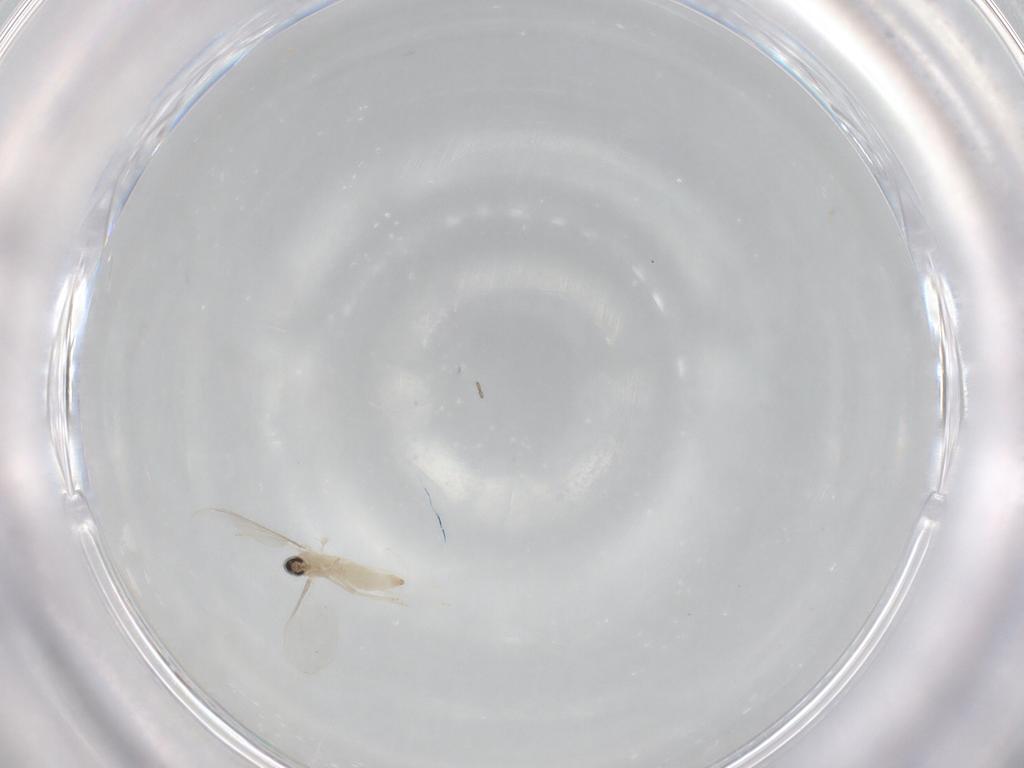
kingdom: Animalia
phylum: Arthropoda
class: Insecta
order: Diptera
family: Cecidomyiidae
